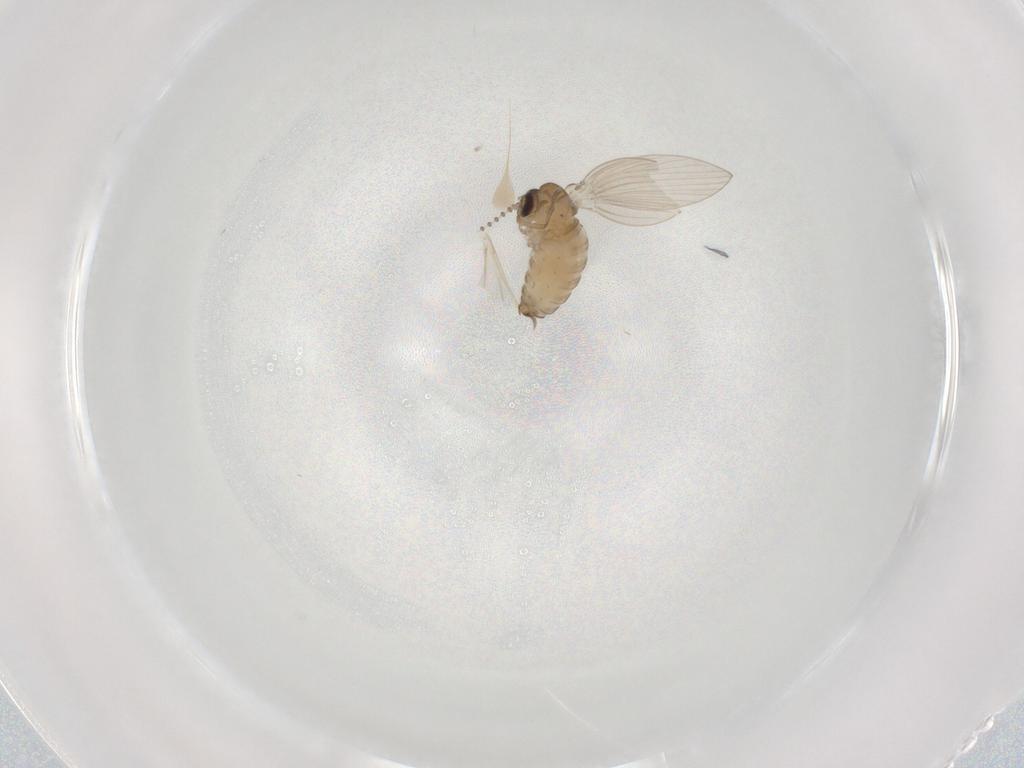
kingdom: Animalia
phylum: Arthropoda
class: Insecta
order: Diptera
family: Psychodidae
